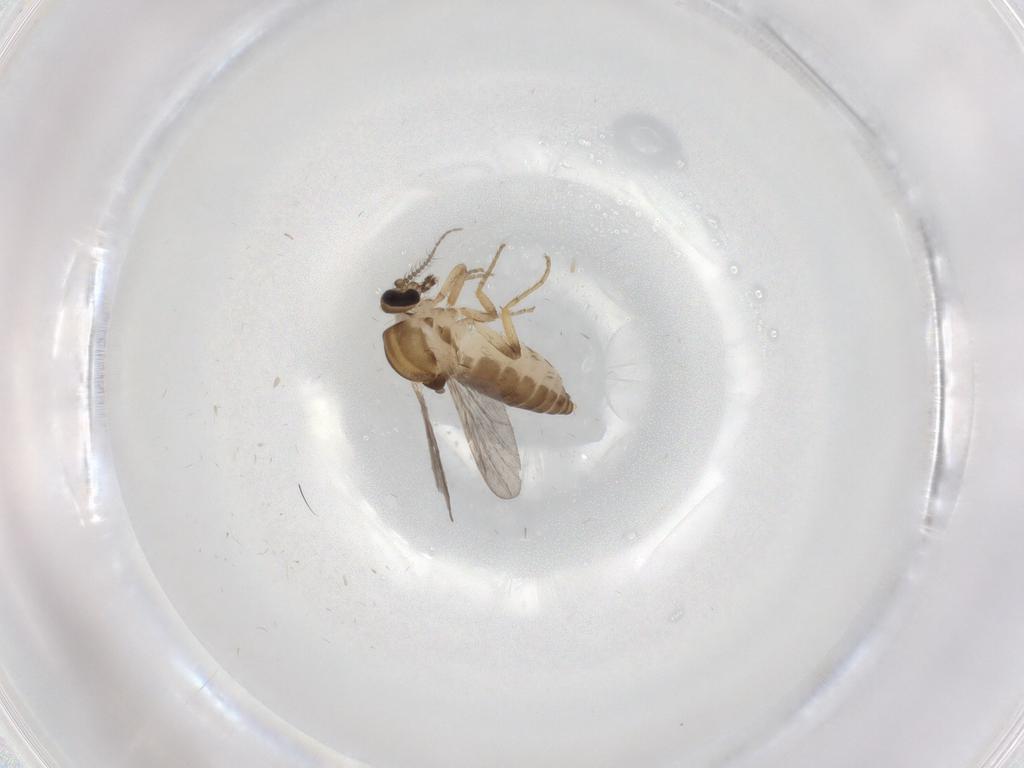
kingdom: Animalia
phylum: Arthropoda
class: Insecta
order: Diptera
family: Ceratopogonidae
